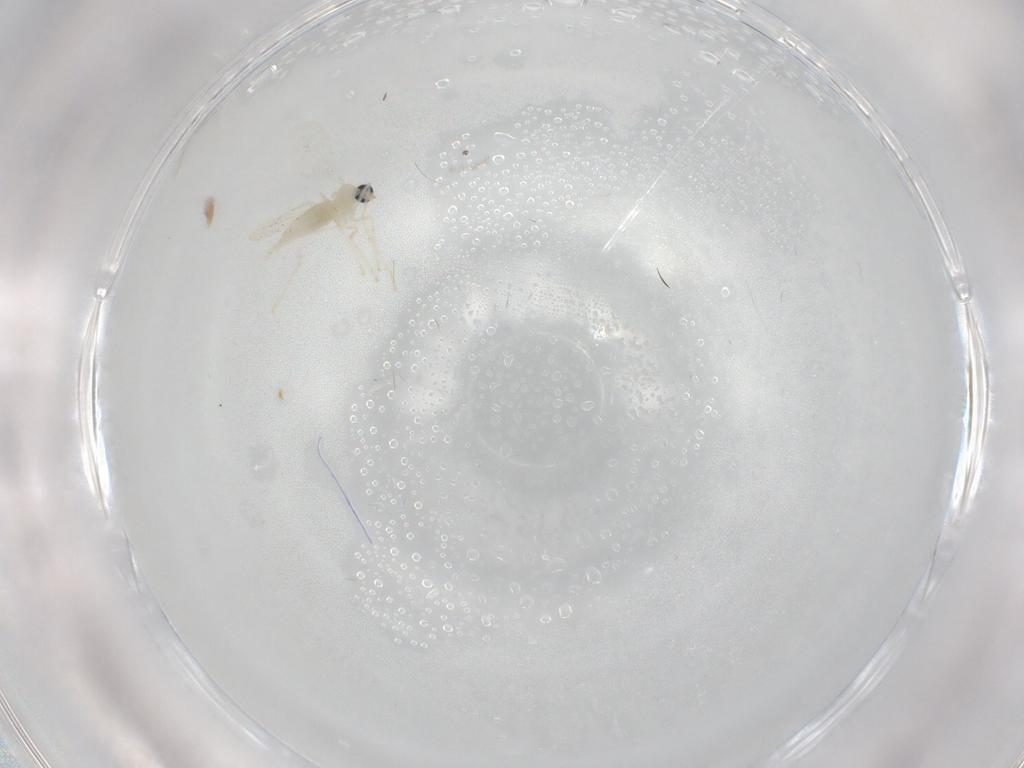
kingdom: Animalia
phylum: Arthropoda
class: Insecta
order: Diptera
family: Cecidomyiidae
